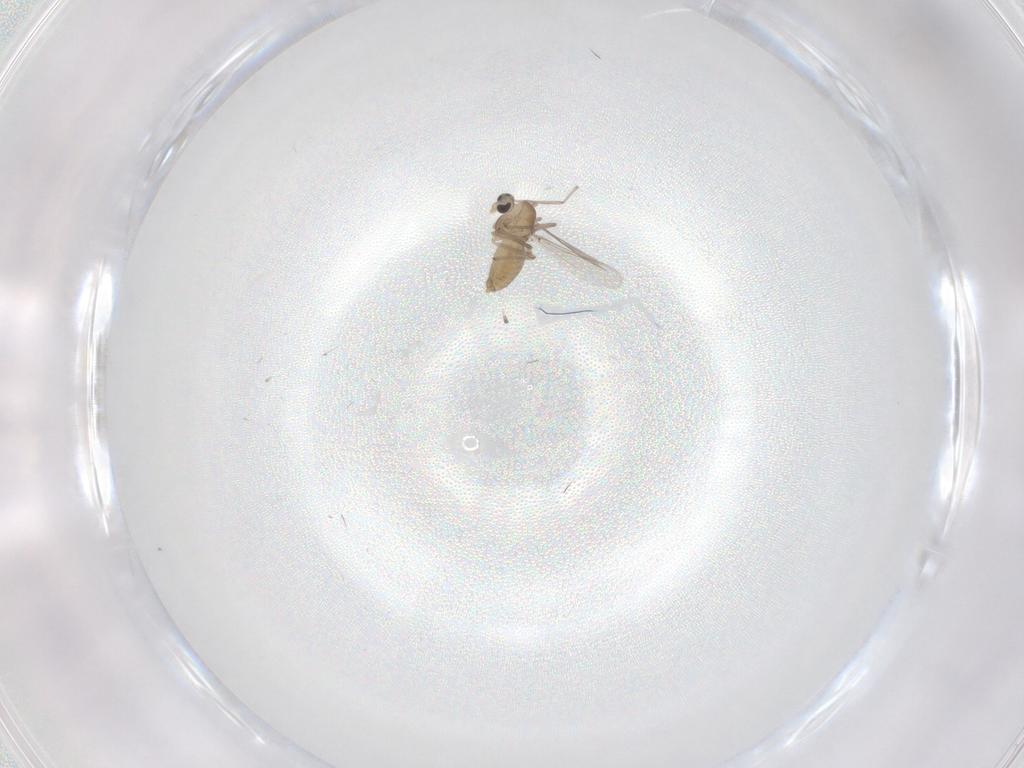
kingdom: Animalia
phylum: Arthropoda
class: Insecta
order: Diptera
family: Chironomidae
